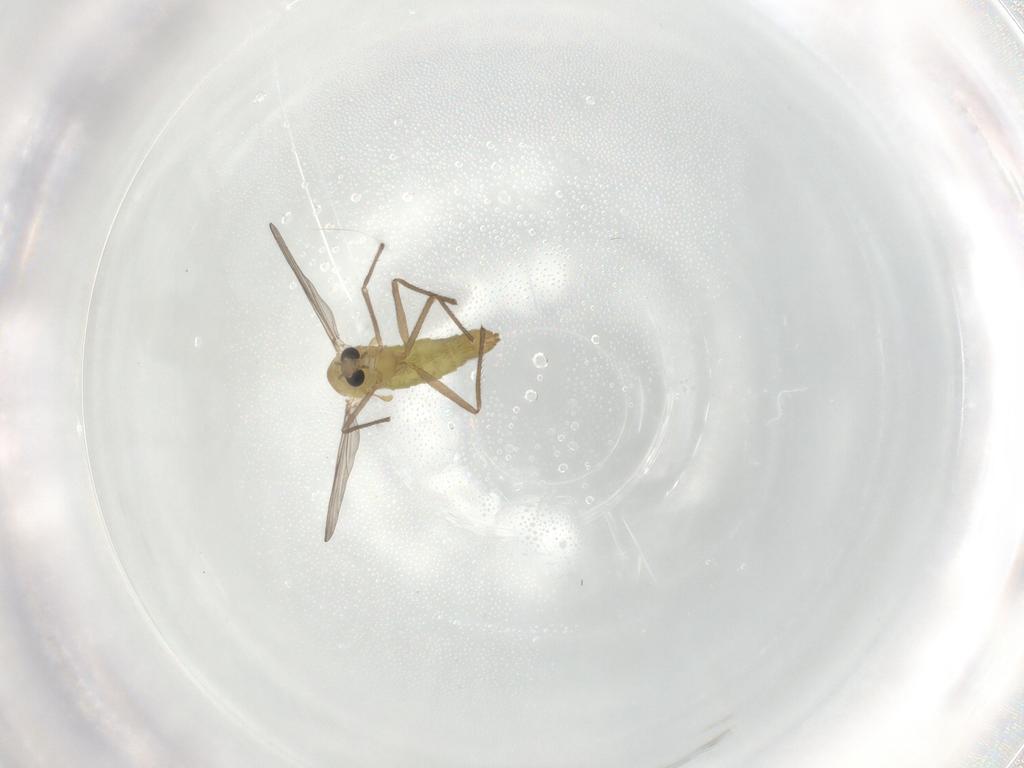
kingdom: Animalia
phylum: Arthropoda
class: Insecta
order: Diptera
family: Chironomidae
